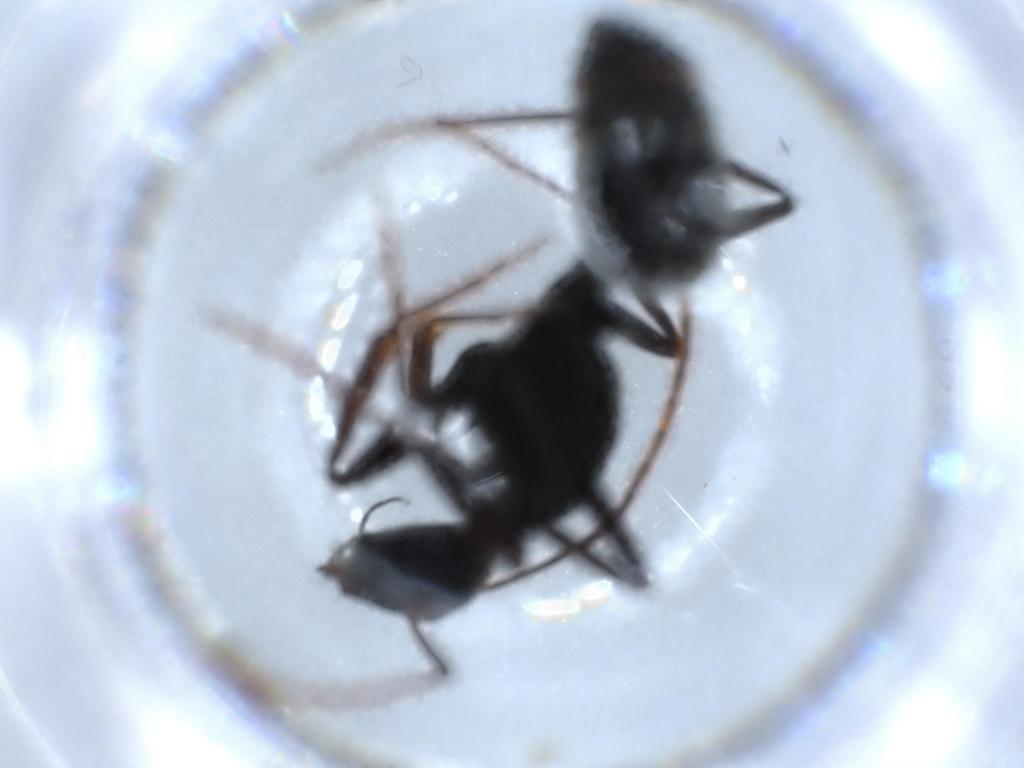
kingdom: Animalia
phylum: Arthropoda
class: Insecta
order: Hymenoptera
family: Formicidae
